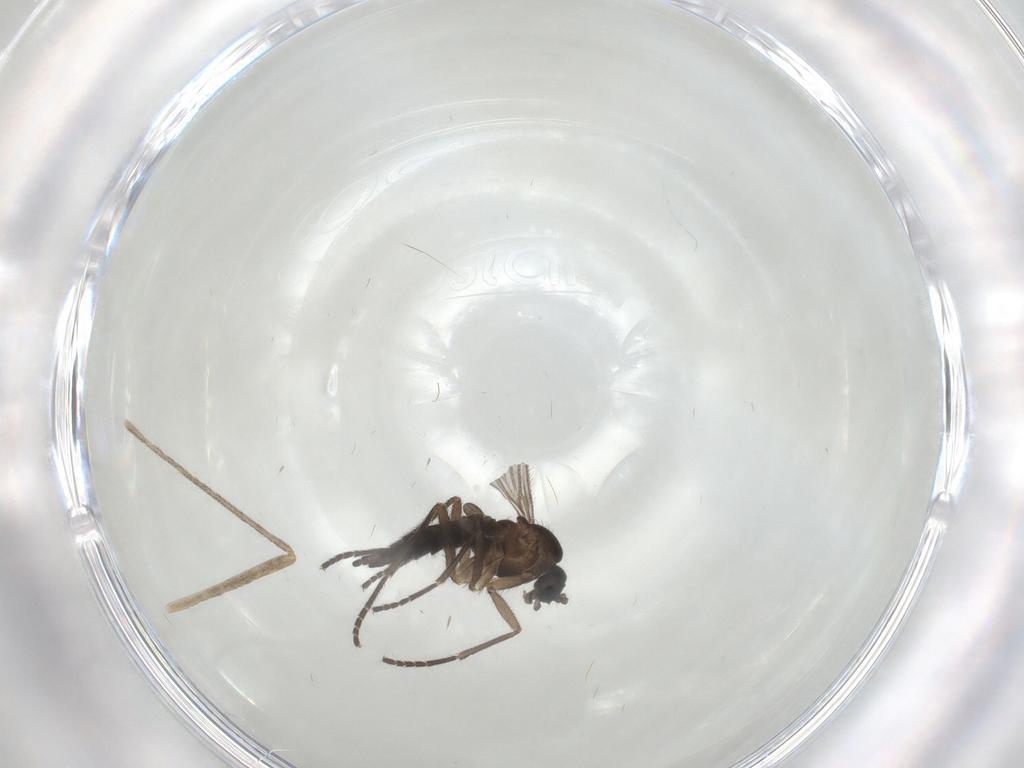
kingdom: Animalia
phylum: Arthropoda
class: Insecta
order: Diptera
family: Sciaridae
